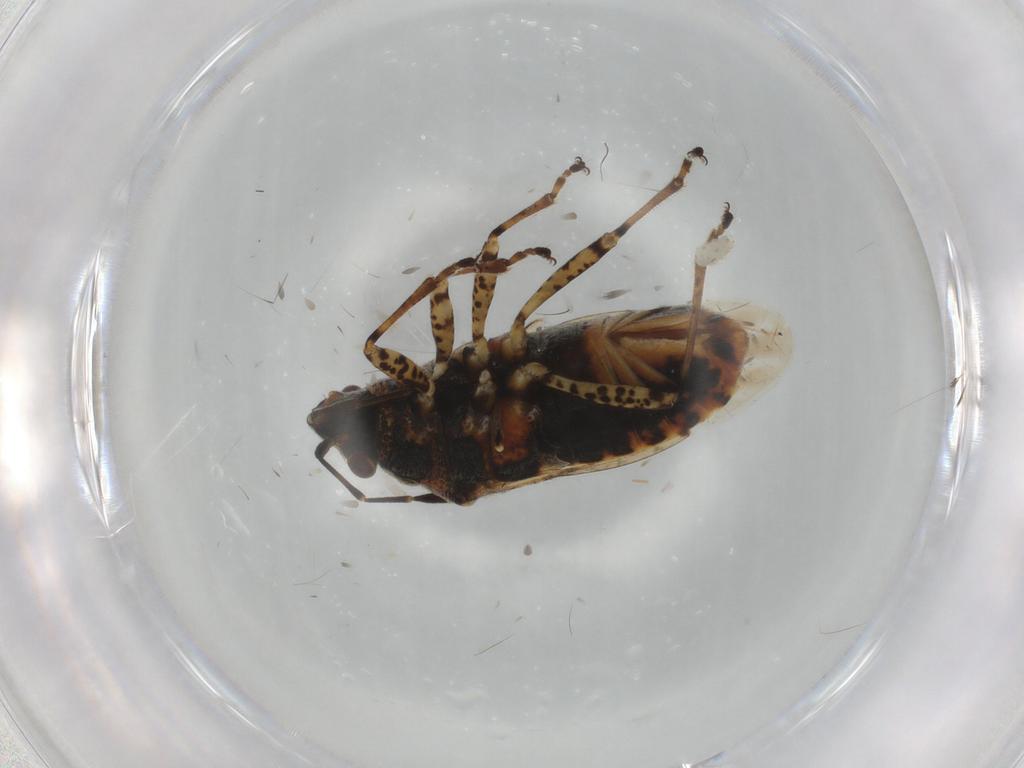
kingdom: Animalia
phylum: Arthropoda
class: Insecta
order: Hemiptera
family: Lygaeidae
